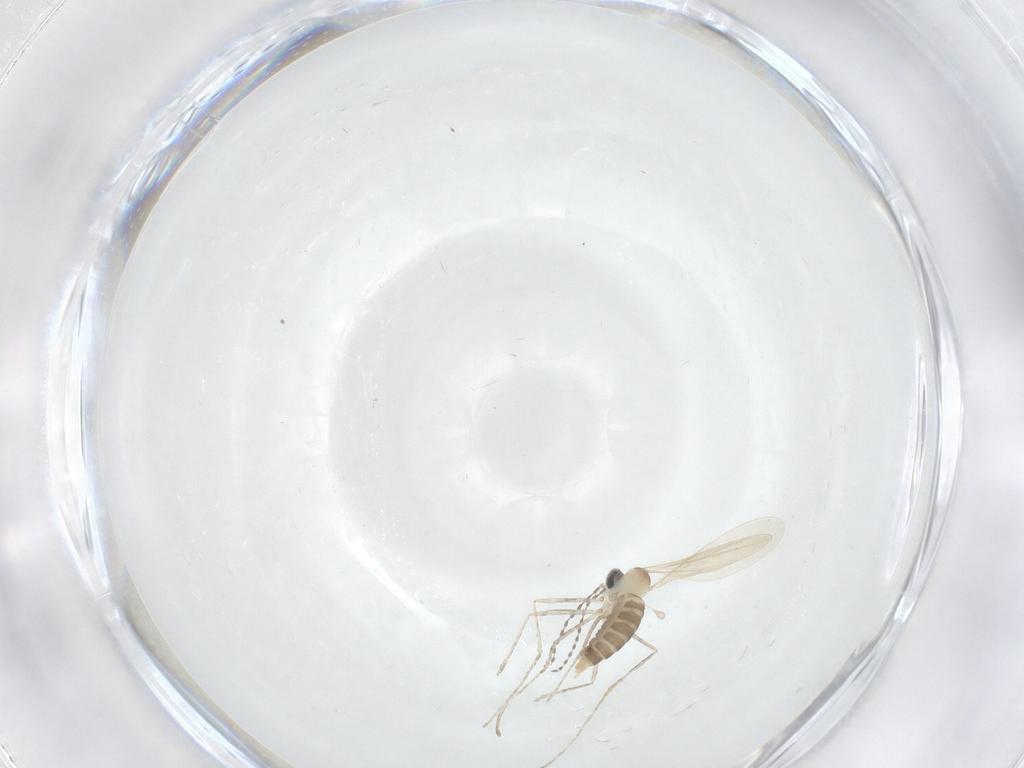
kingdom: Animalia
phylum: Arthropoda
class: Insecta
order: Diptera
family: Cecidomyiidae
